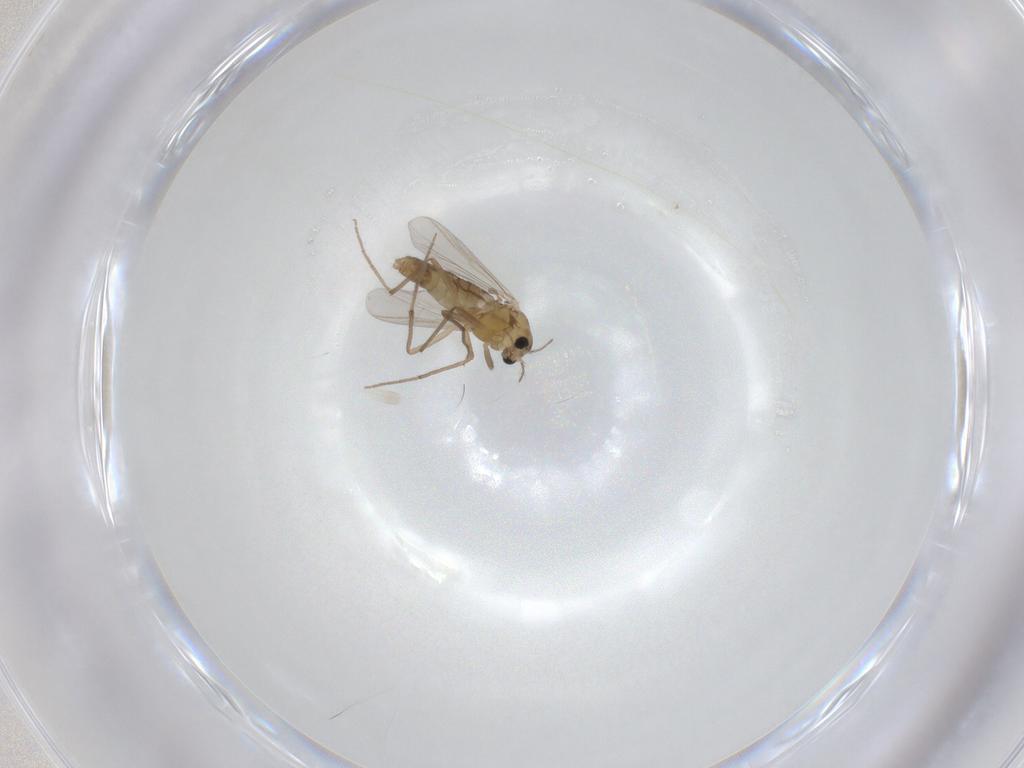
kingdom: Animalia
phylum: Arthropoda
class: Insecta
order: Diptera
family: Chironomidae
